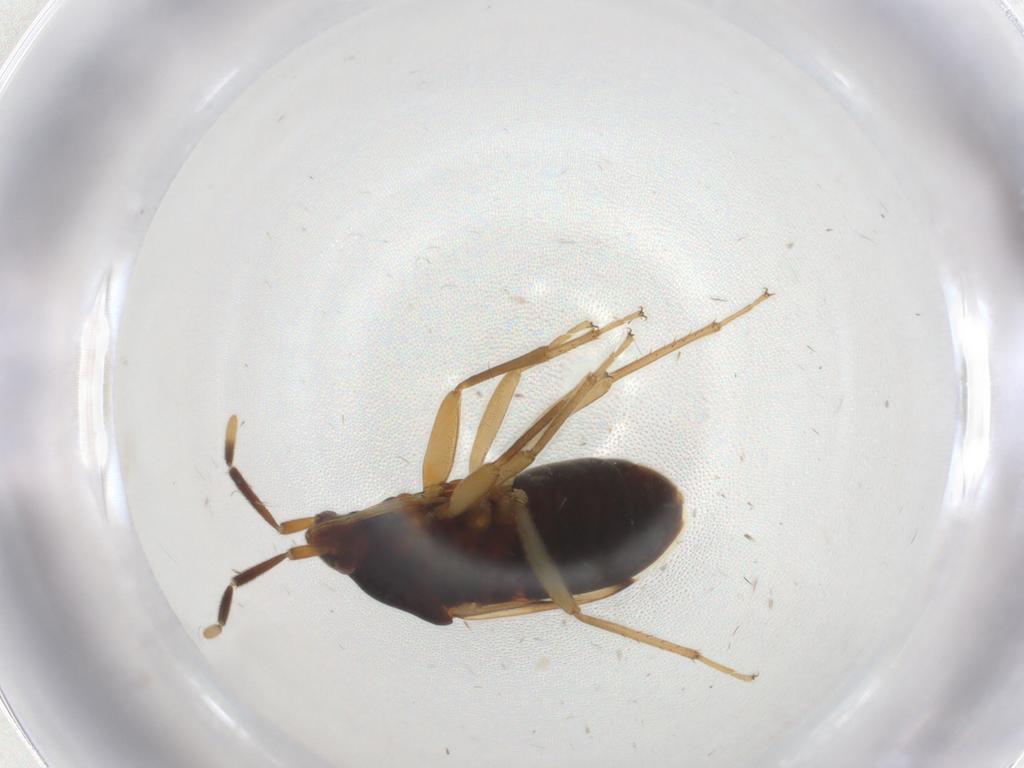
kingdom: Animalia
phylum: Arthropoda
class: Insecta
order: Hemiptera
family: Rhyparochromidae
